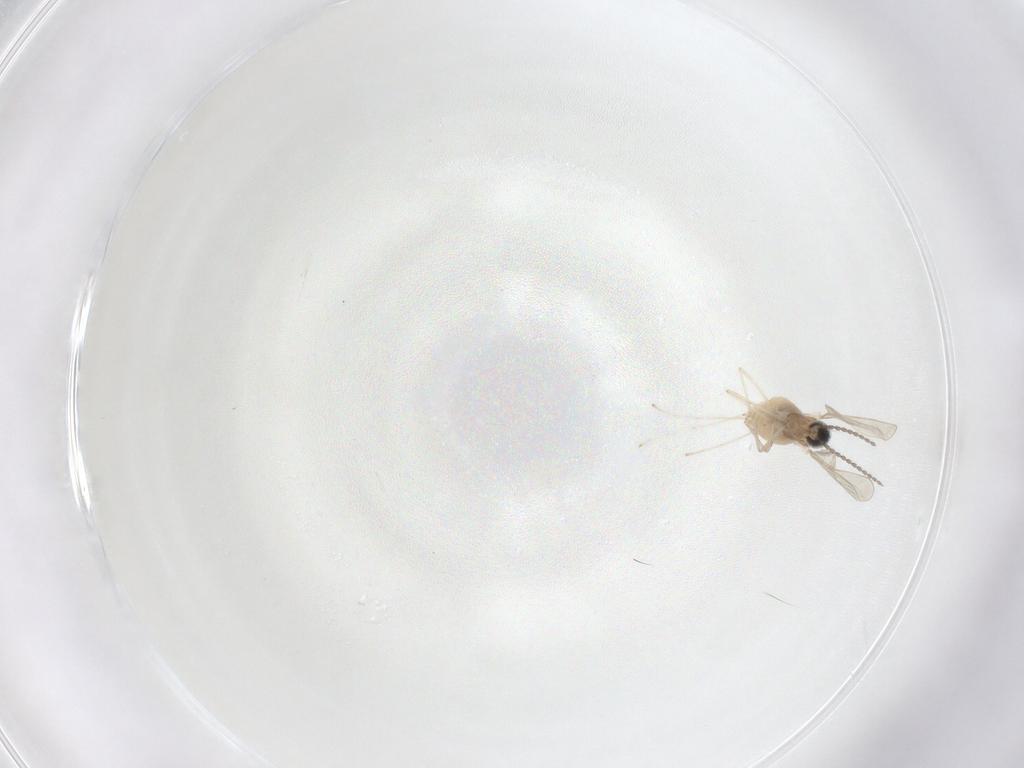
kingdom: Animalia
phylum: Arthropoda
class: Insecta
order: Diptera
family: Cecidomyiidae
